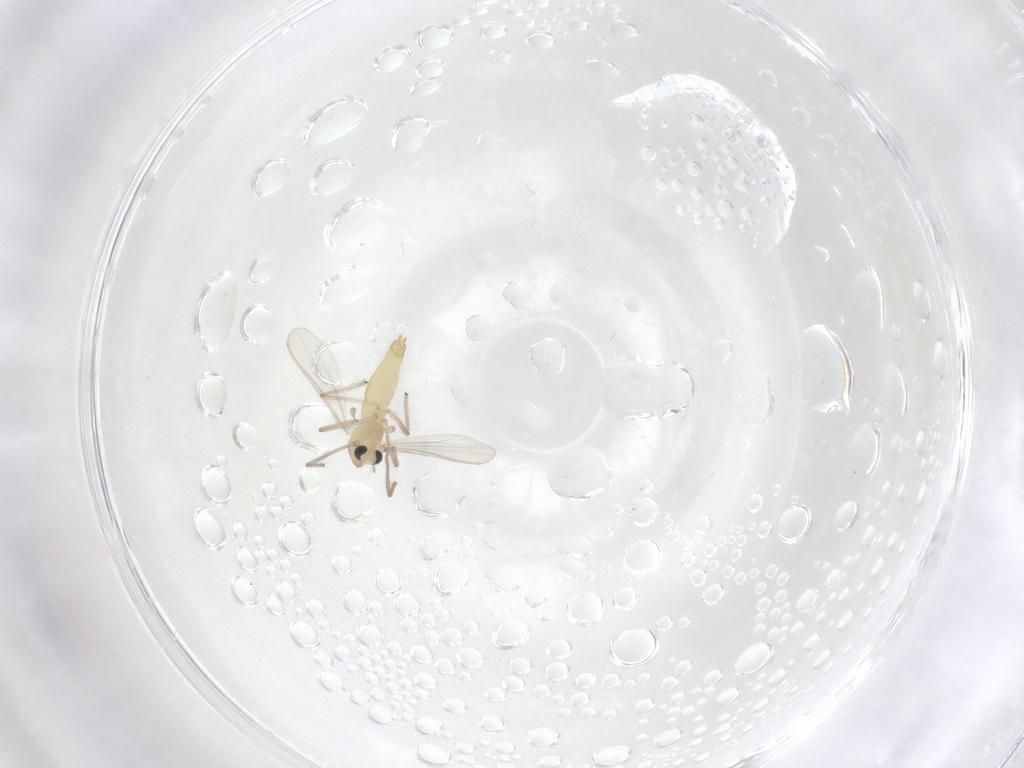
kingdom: Animalia
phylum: Arthropoda
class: Insecta
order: Diptera
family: Chironomidae
